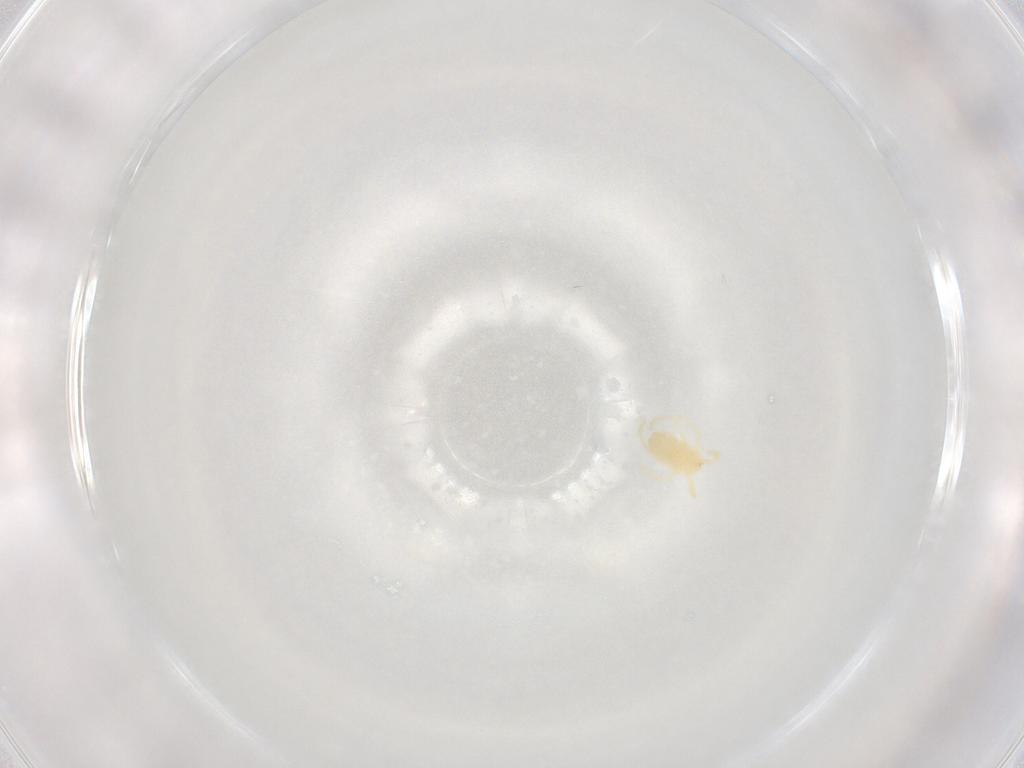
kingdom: Animalia
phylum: Arthropoda
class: Arachnida
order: Trombidiformes
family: Trombidiidae
